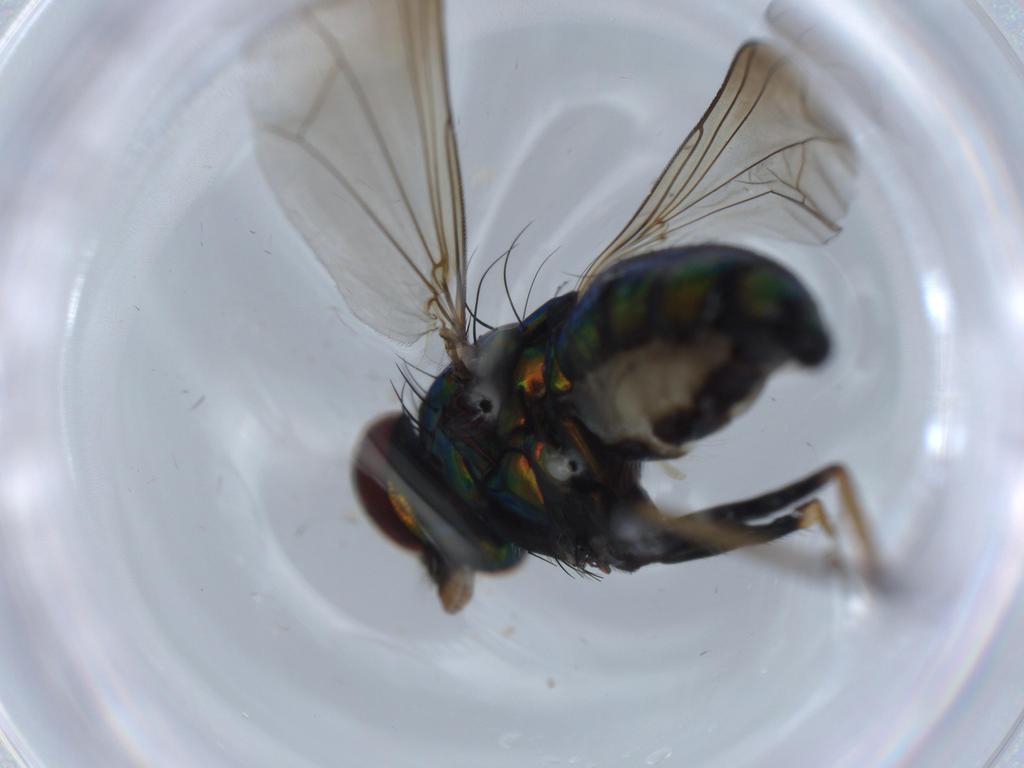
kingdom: Animalia
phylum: Arthropoda
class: Insecta
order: Diptera
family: Dolichopodidae
